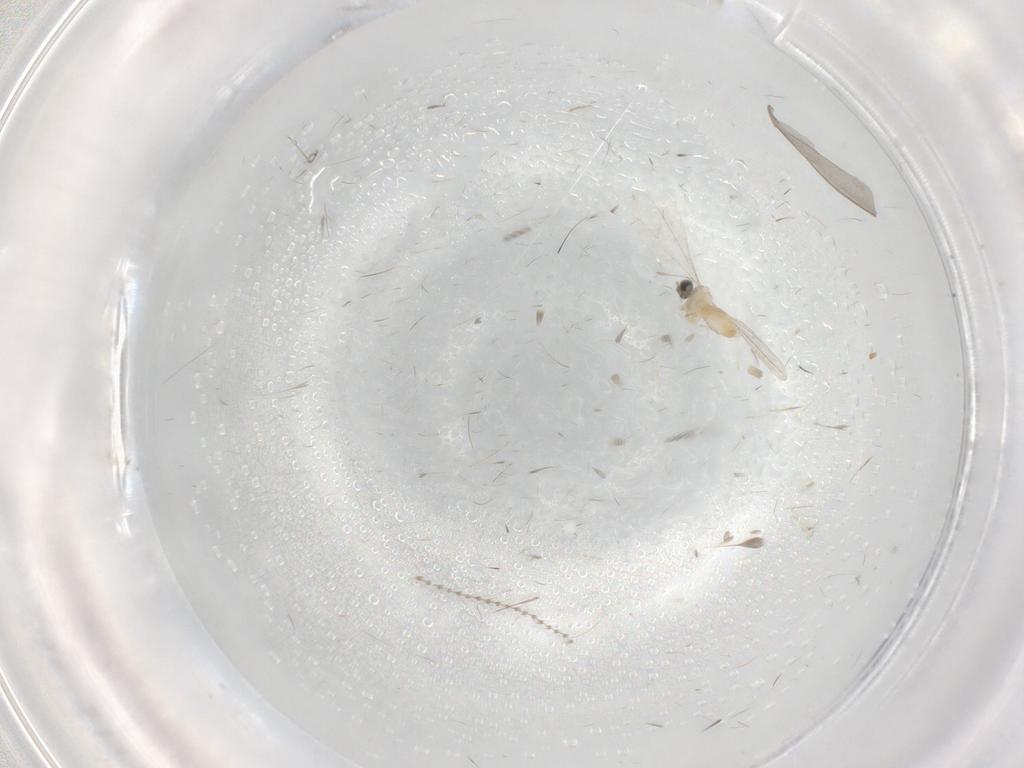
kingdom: Animalia
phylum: Arthropoda
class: Insecta
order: Diptera
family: Cecidomyiidae
